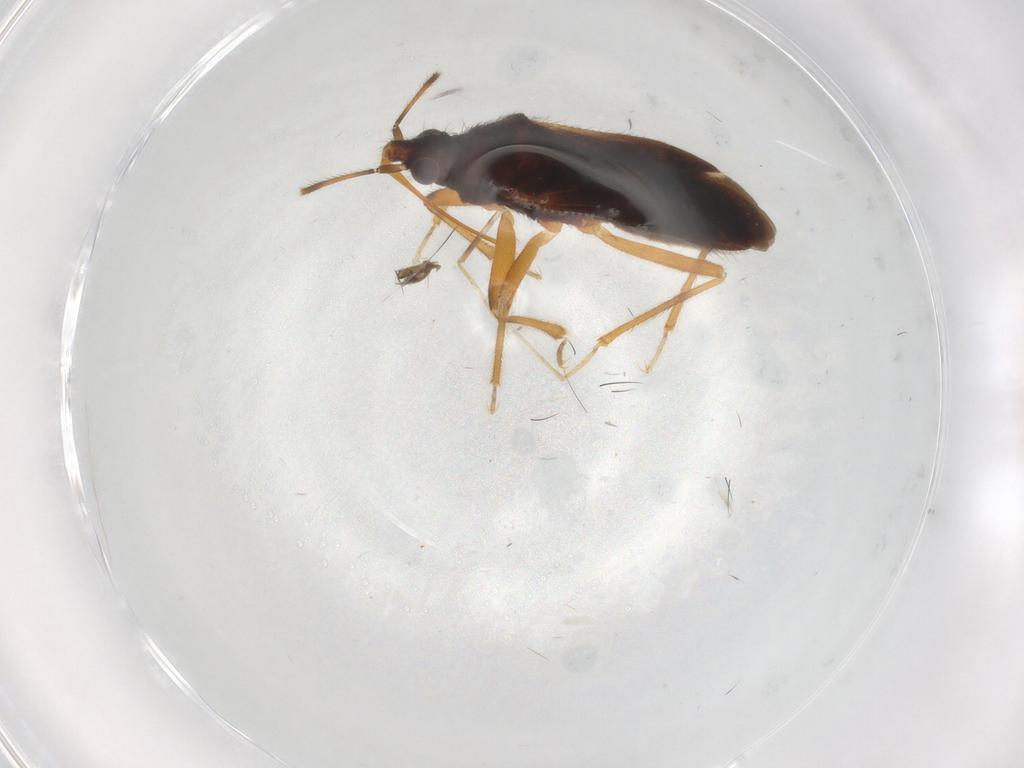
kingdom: Animalia
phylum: Arthropoda
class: Insecta
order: Hemiptera
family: Anthocoridae
